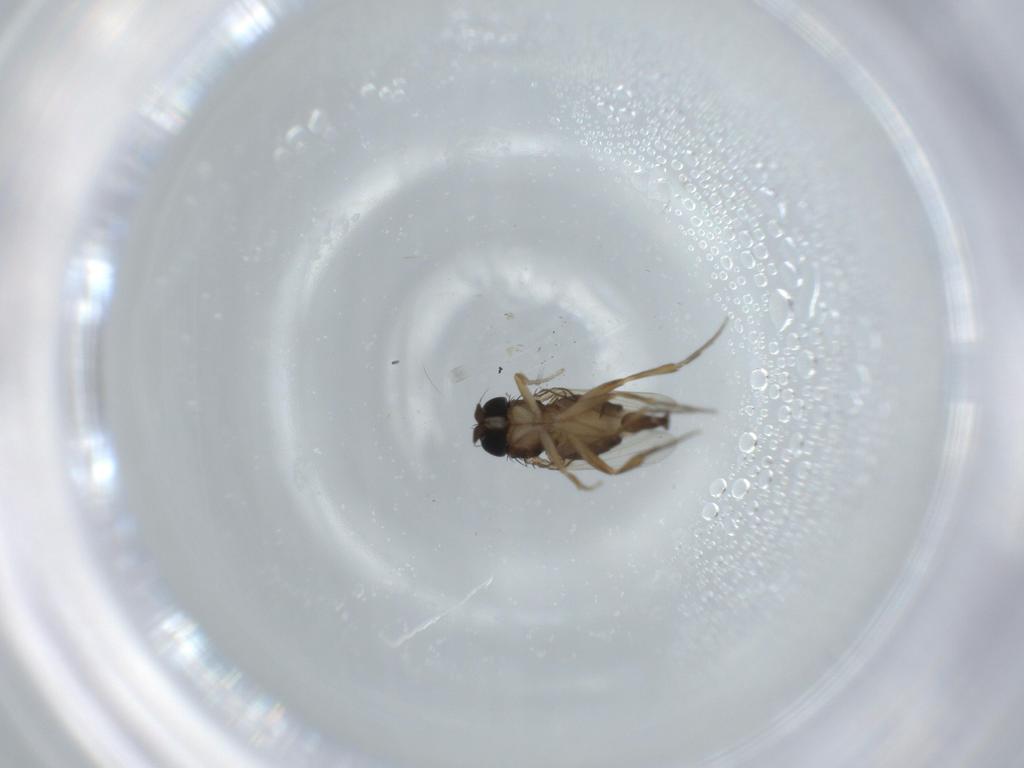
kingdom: Animalia
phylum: Arthropoda
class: Insecta
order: Diptera
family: Phoridae
